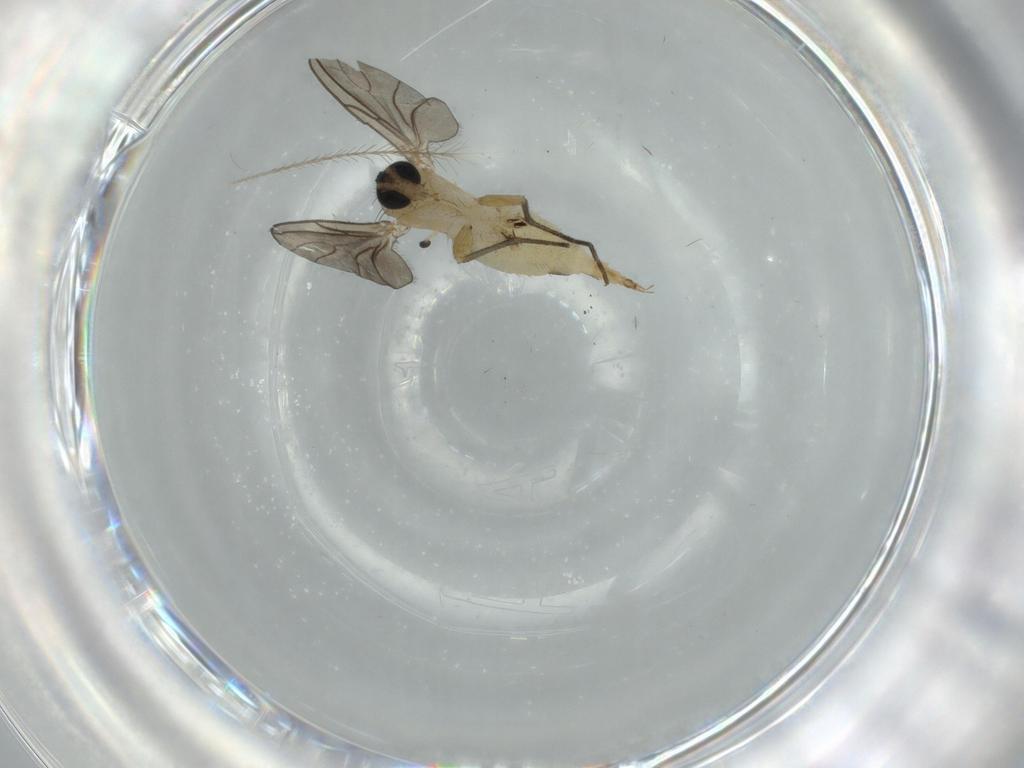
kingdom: Animalia
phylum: Arthropoda
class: Insecta
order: Diptera
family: Sciaridae
